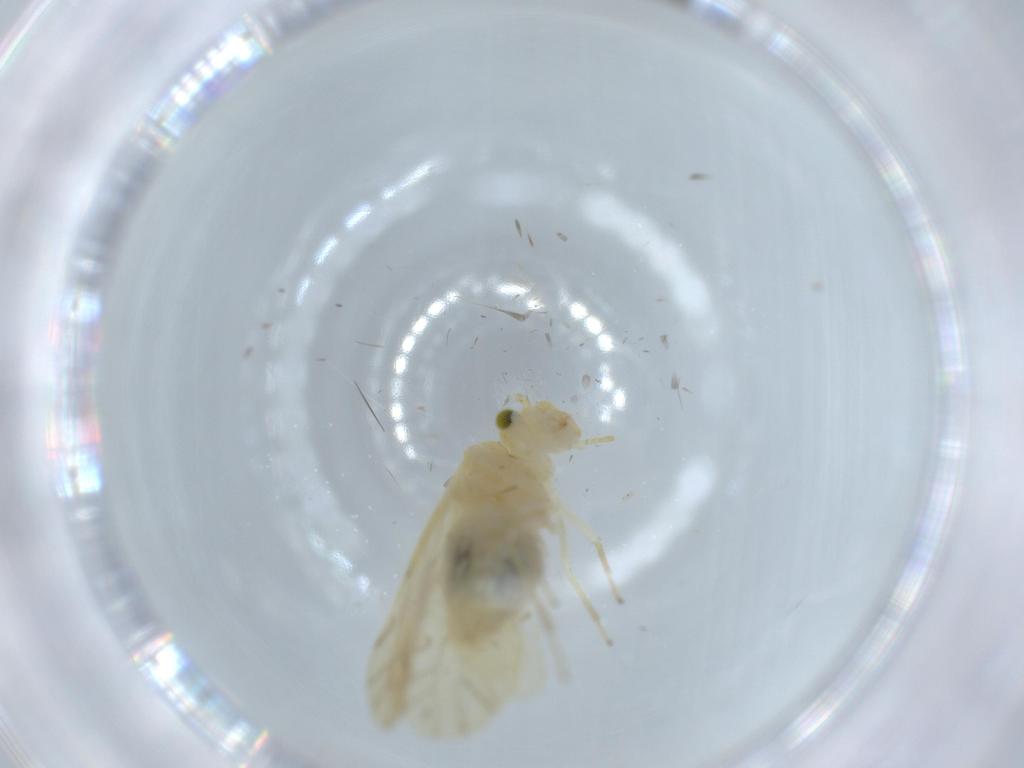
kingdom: Animalia
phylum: Arthropoda
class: Insecta
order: Psocodea
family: Caeciliusidae
